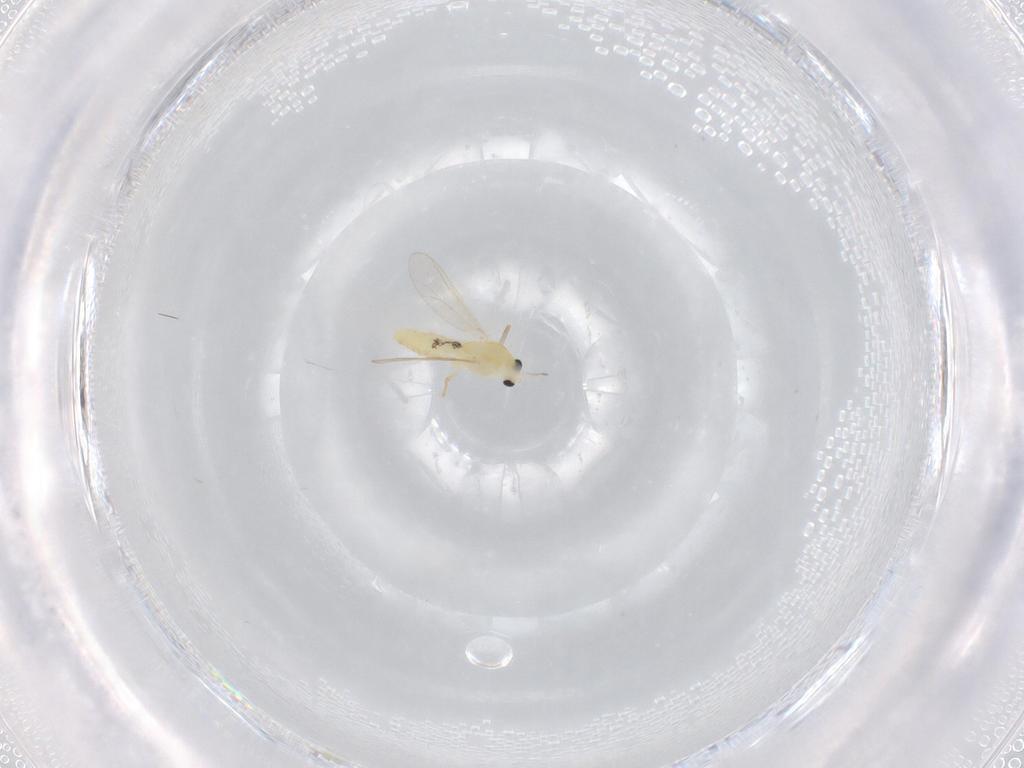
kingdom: Animalia
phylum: Arthropoda
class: Insecta
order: Diptera
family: Chironomidae
